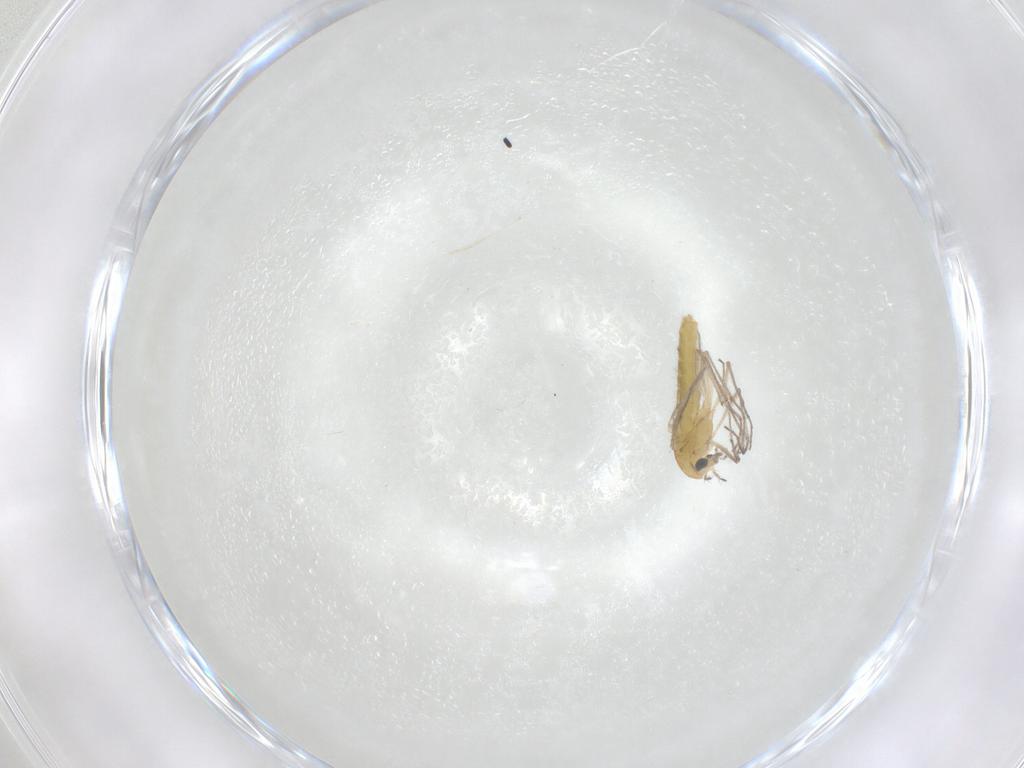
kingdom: Animalia
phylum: Arthropoda
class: Insecta
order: Diptera
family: Chironomidae
